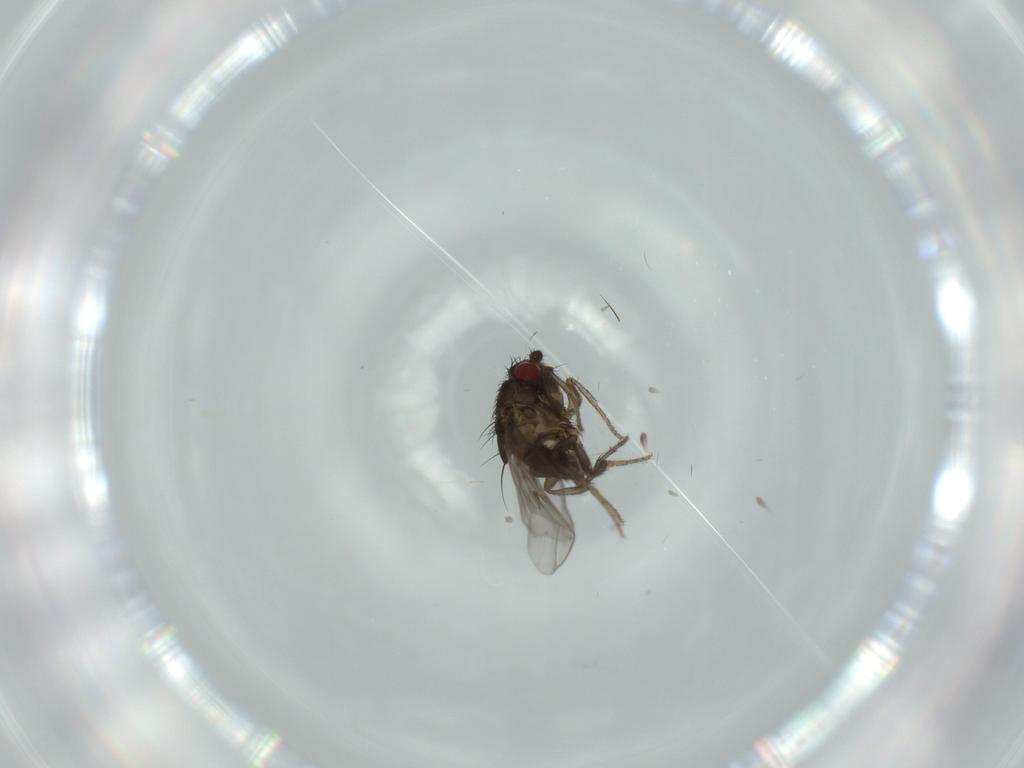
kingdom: Animalia
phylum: Arthropoda
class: Insecta
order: Diptera
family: Sphaeroceridae
